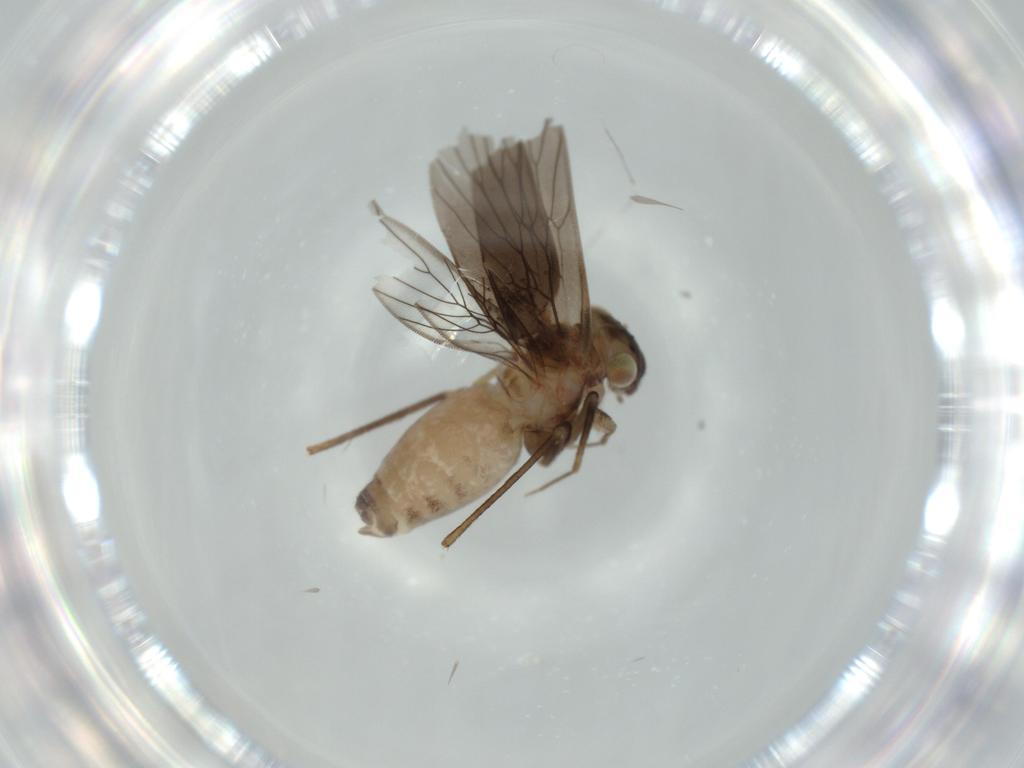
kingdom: Animalia
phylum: Arthropoda
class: Insecta
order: Psocodea
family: Lepidopsocidae
